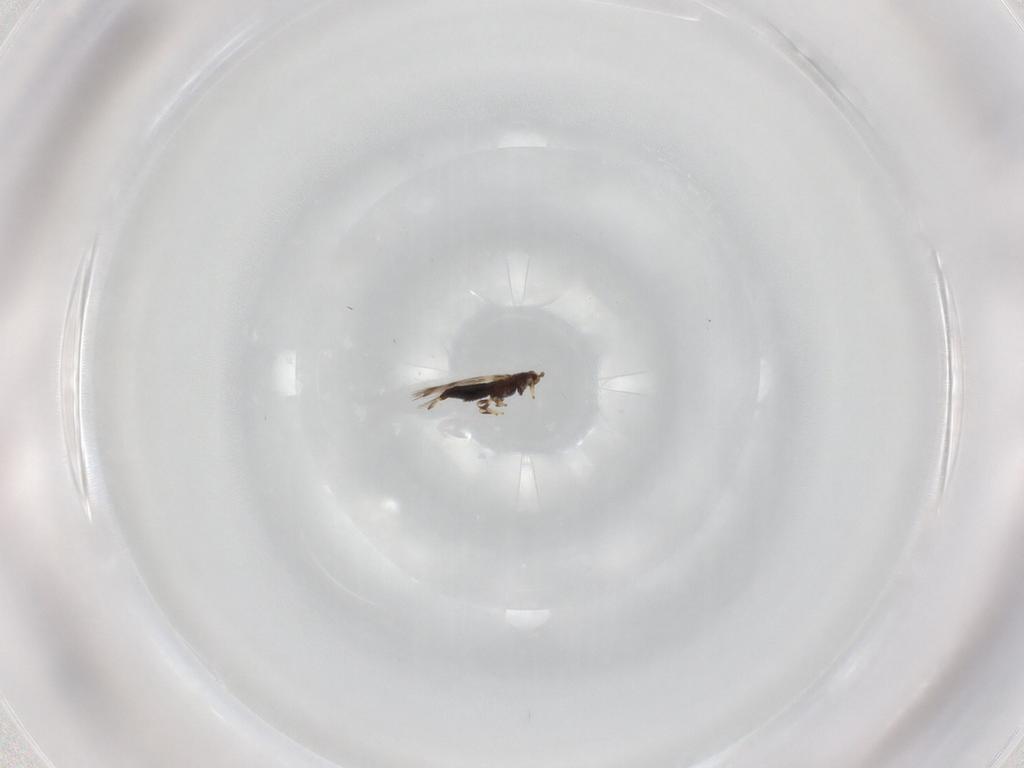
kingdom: Animalia
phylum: Arthropoda
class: Insecta
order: Thysanoptera
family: Thripidae
